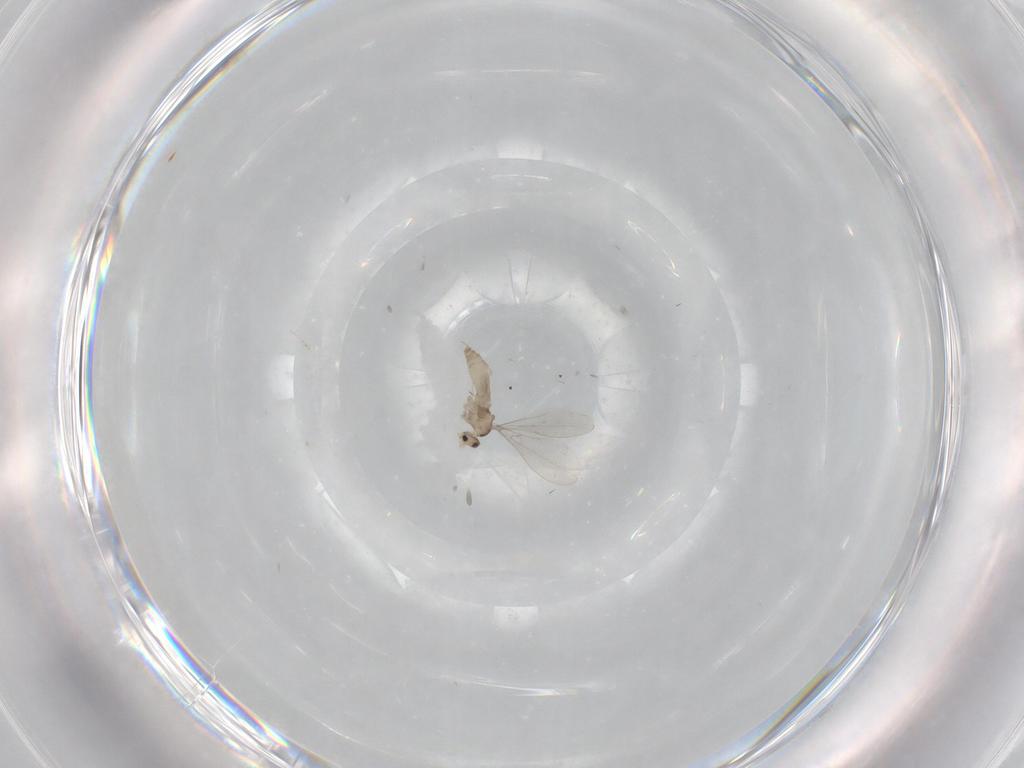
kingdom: Animalia
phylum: Arthropoda
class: Insecta
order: Diptera
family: Cecidomyiidae
